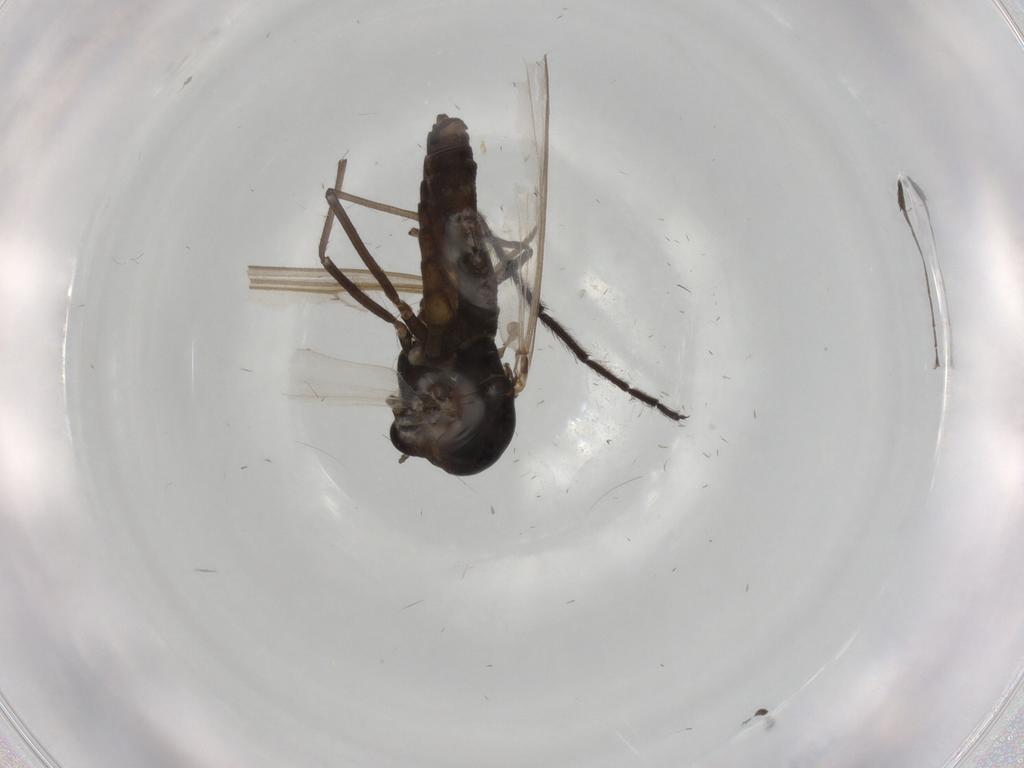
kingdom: Animalia
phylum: Arthropoda
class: Insecta
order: Diptera
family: Chironomidae
